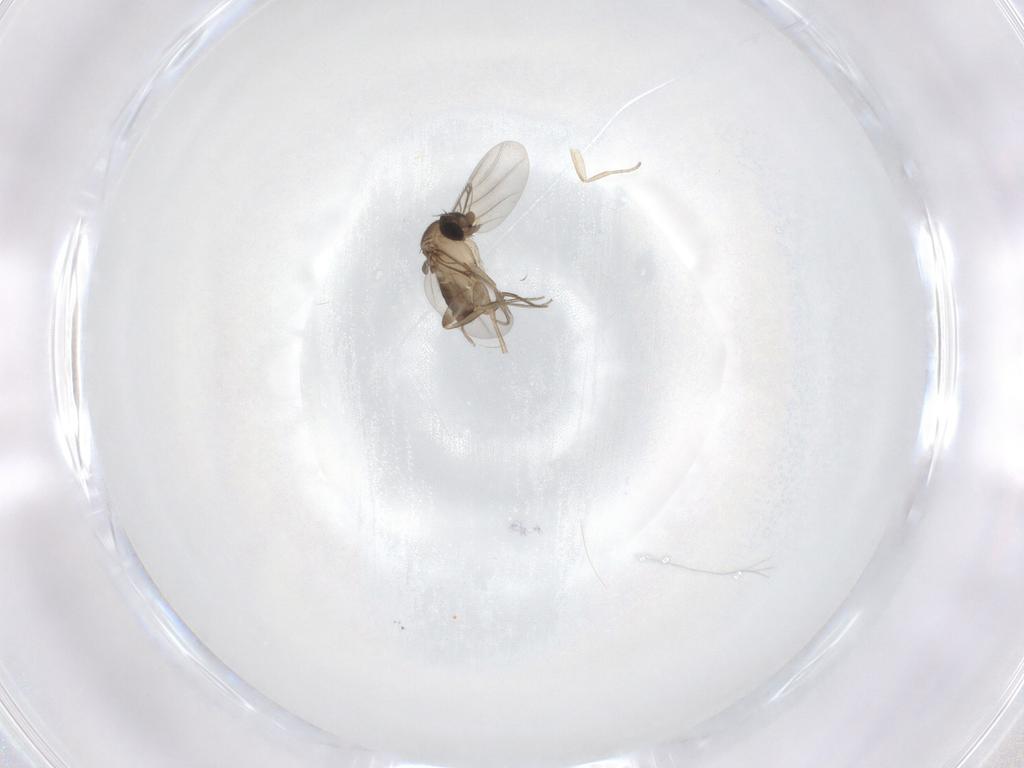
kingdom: Animalia
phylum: Arthropoda
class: Insecta
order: Diptera
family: Phoridae
